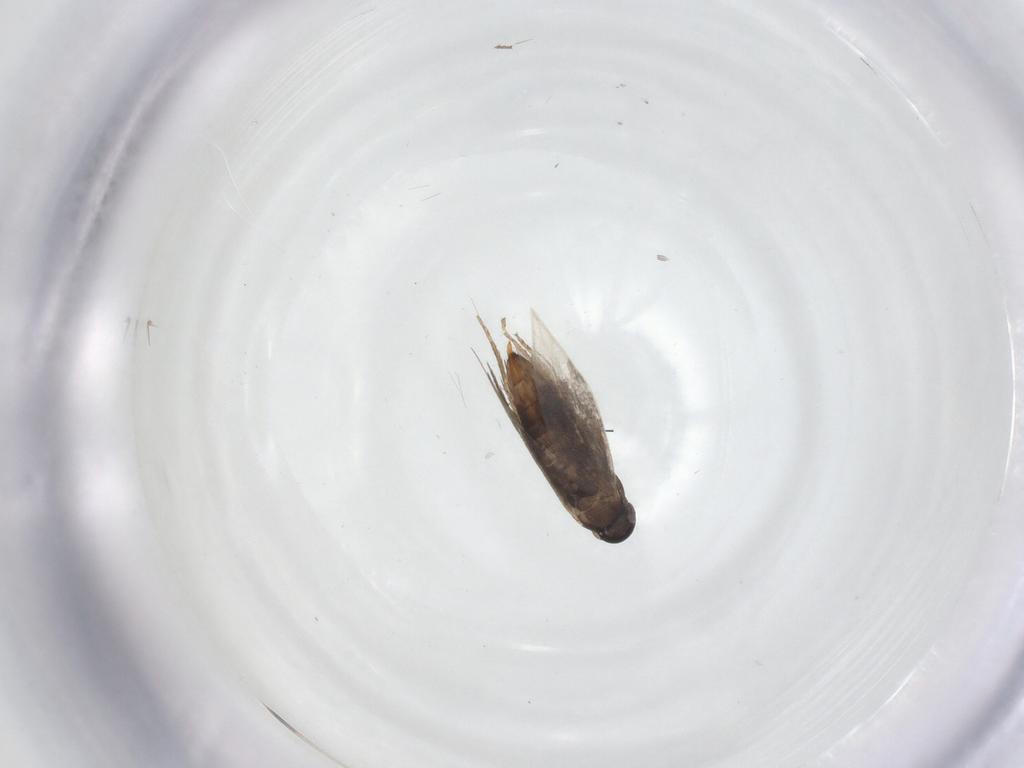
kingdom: Animalia
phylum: Arthropoda
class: Insecta
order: Lepidoptera
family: Heliozelidae
